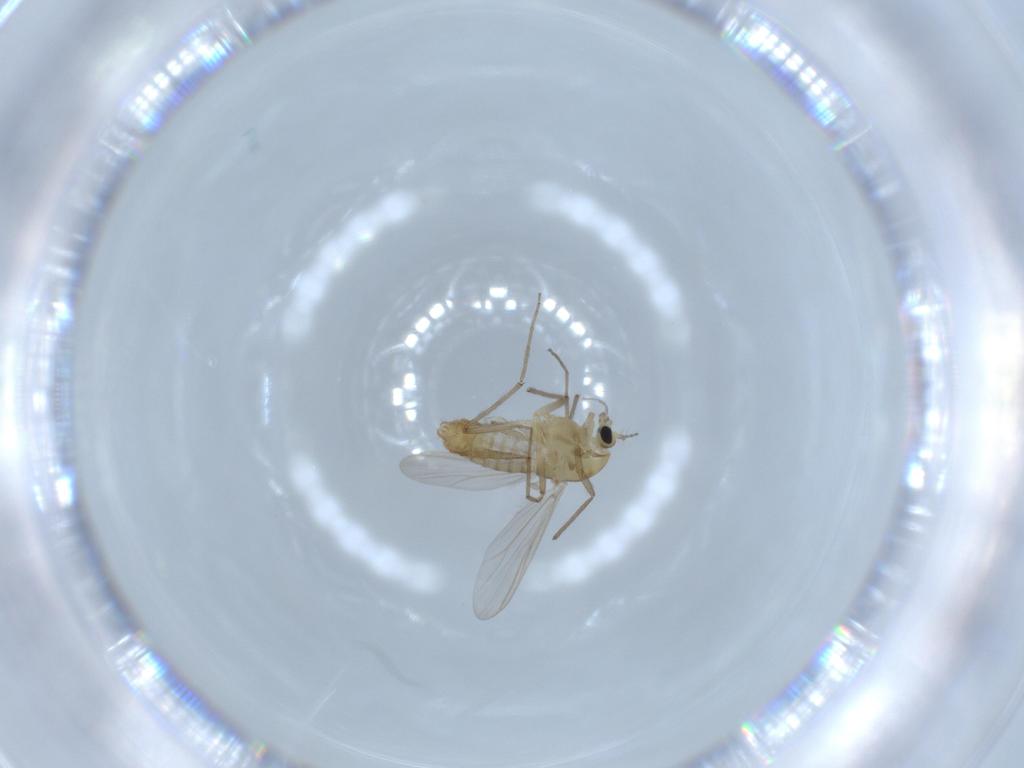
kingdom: Animalia
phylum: Arthropoda
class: Insecta
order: Diptera
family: Chironomidae
